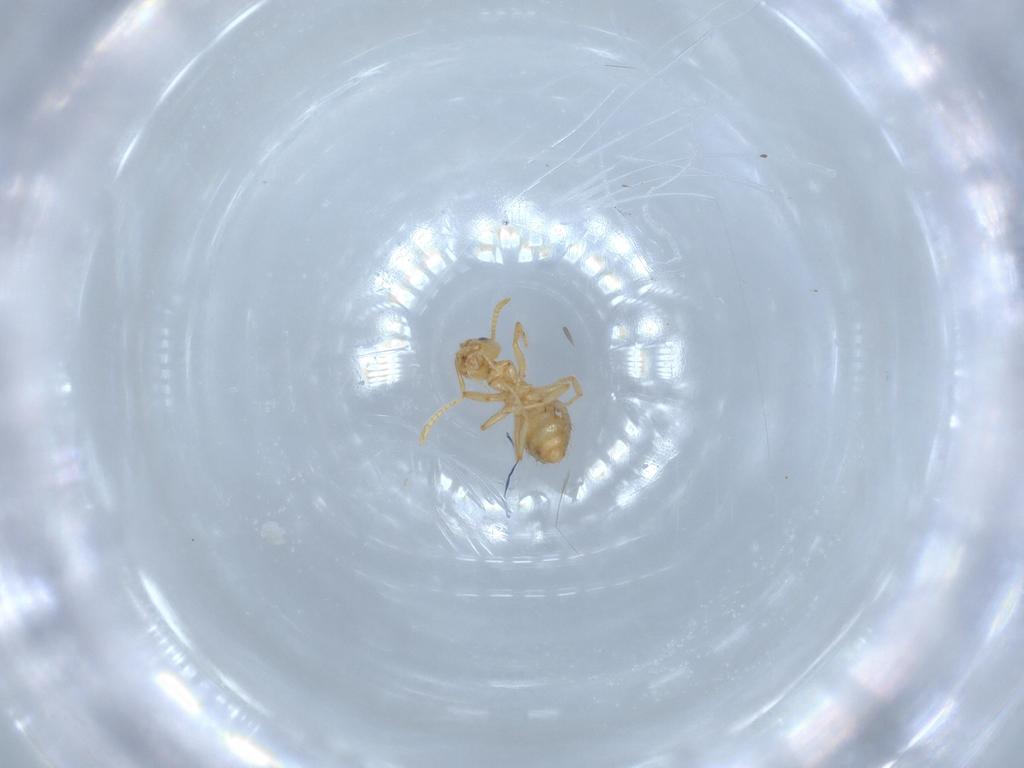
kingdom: Animalia
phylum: Arthropoda
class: Insecta
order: Hymenoptera
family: Formicidae
